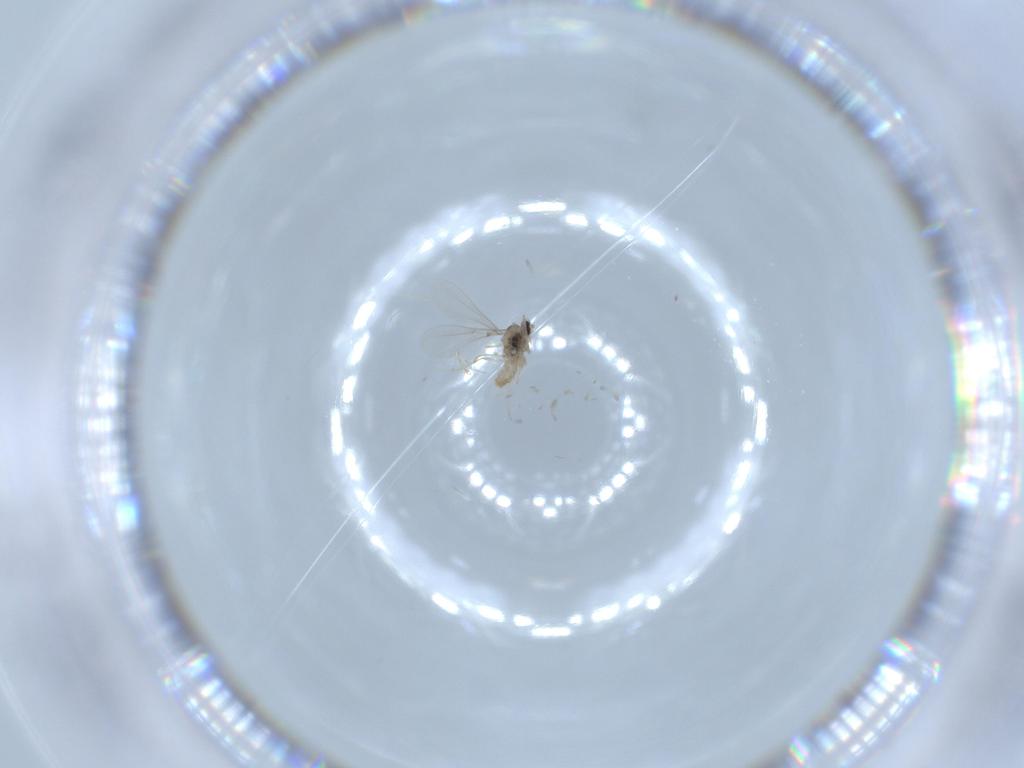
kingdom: Animalia
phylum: Arthropoda
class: Insecta
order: Diptera
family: Cecidomyiidae
